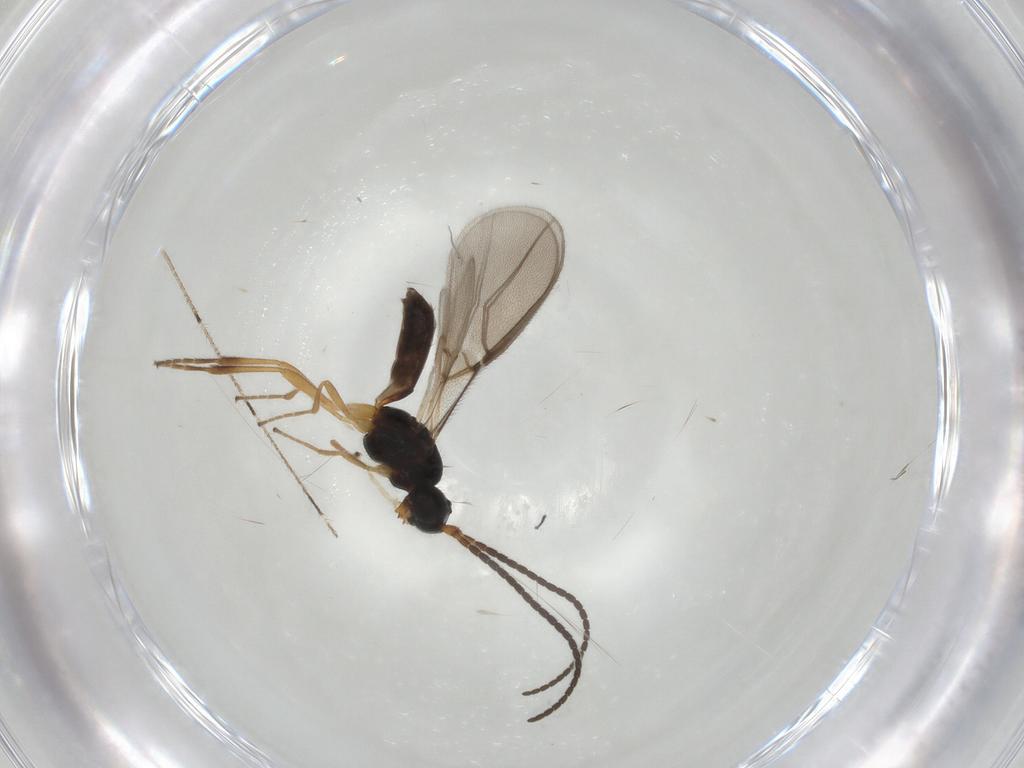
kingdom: Animalia
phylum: Arthropoda
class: Insecta
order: Hymenoptera
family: Braconidae
